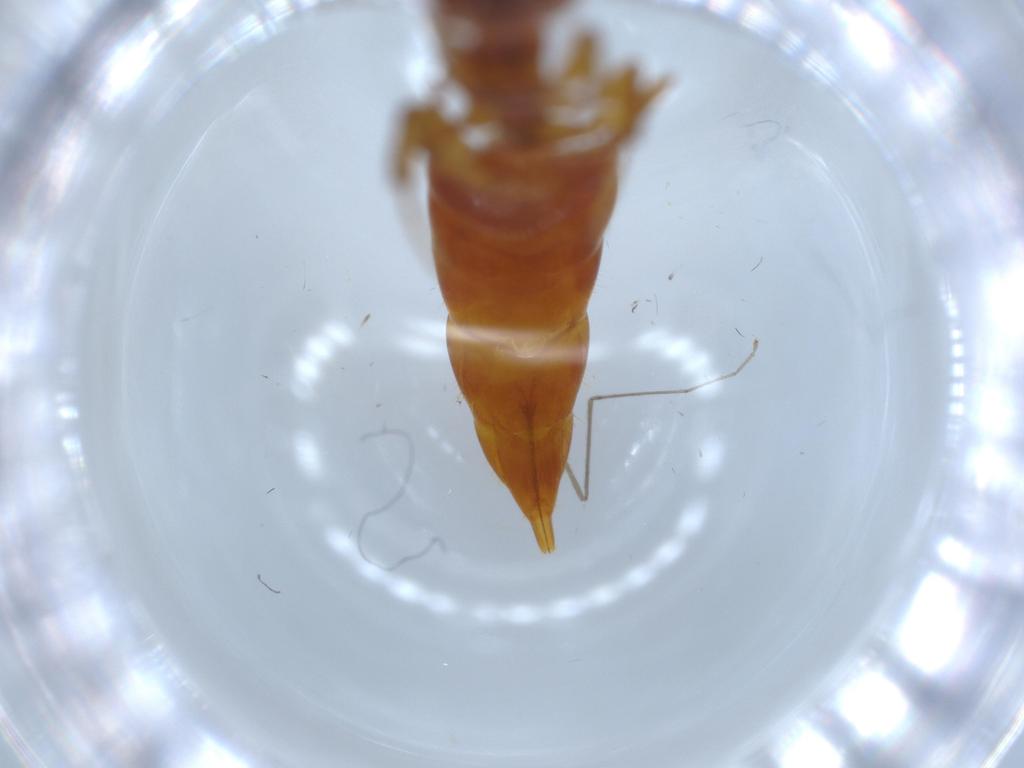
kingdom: Animalia
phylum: Arthropoda
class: Insecta
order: Hymenoptera
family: Bethylidae
